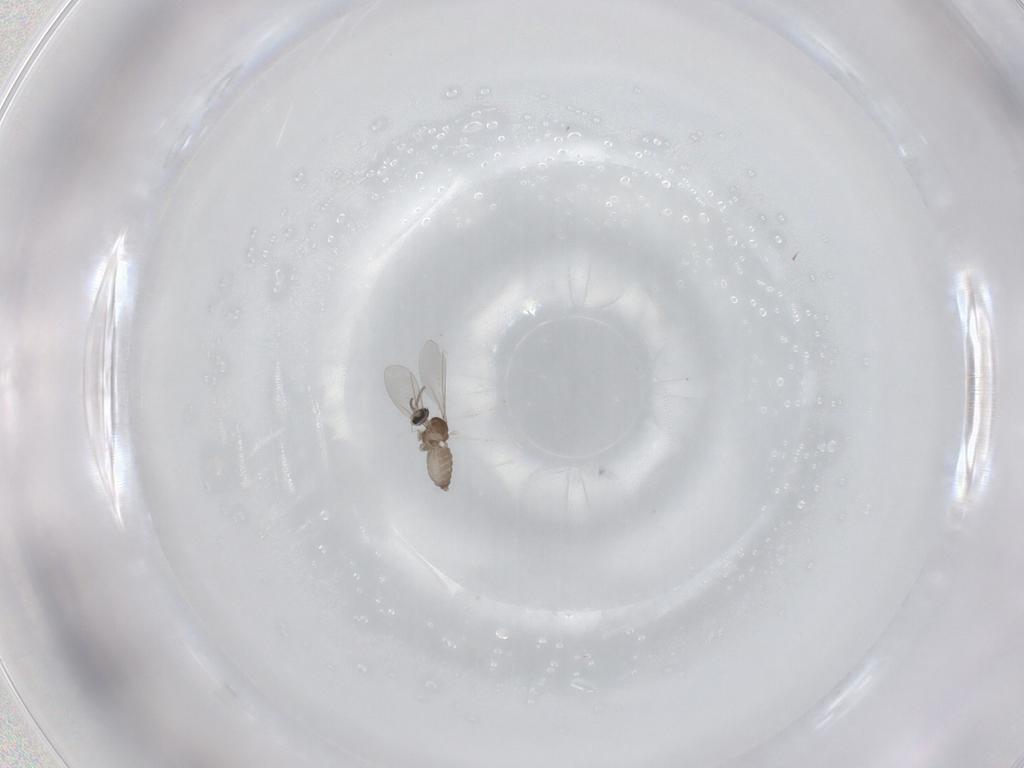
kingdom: Animalia
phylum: Arthropoda
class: Insecta
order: Diptera
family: Cecidomyiidae
